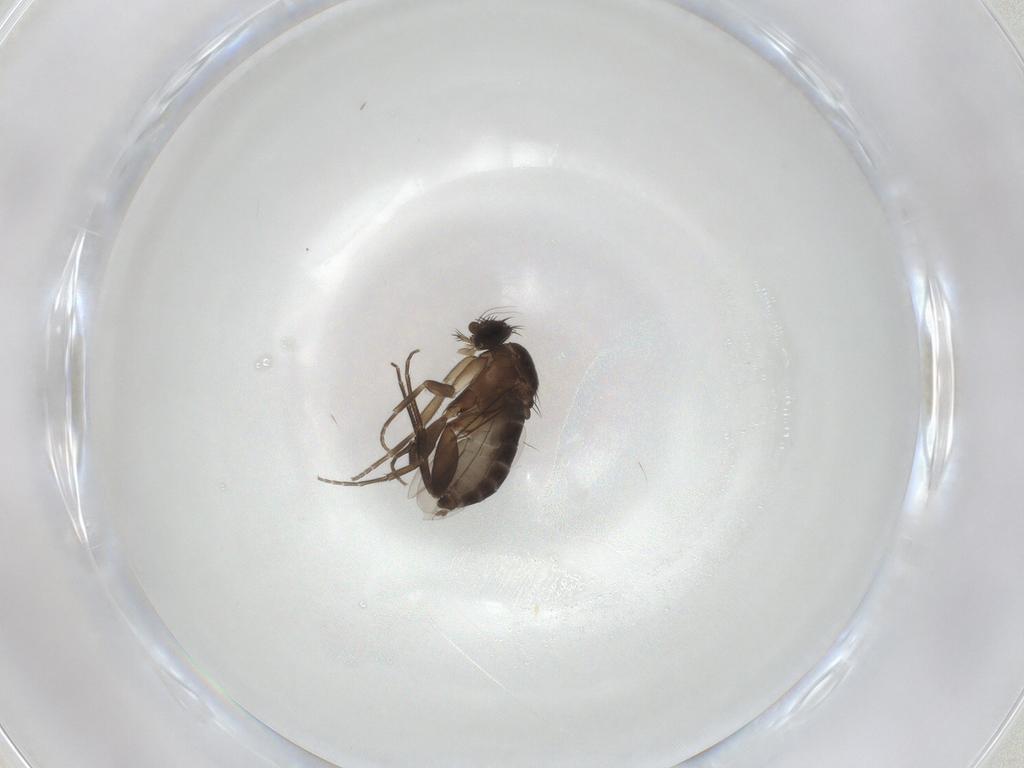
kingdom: Animalia
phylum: Arthropoda
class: Insecta
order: Diptera
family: Phoridae
